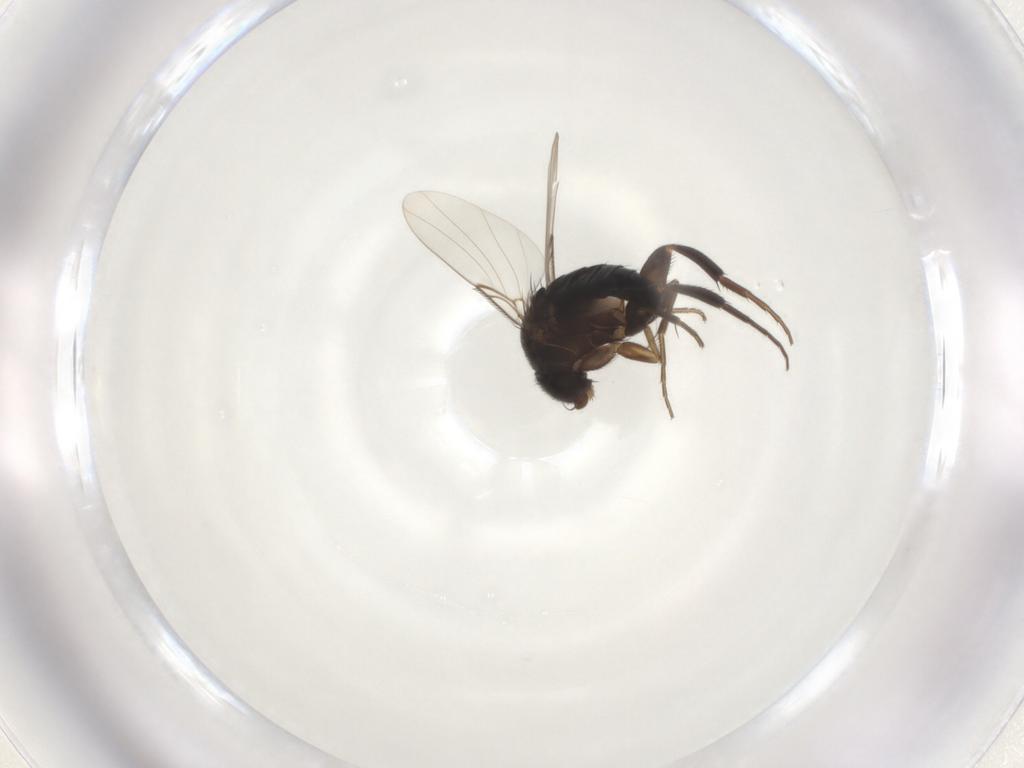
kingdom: Animalia
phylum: Arthropoda
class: Insecta
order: Diptera
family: Phoridae
